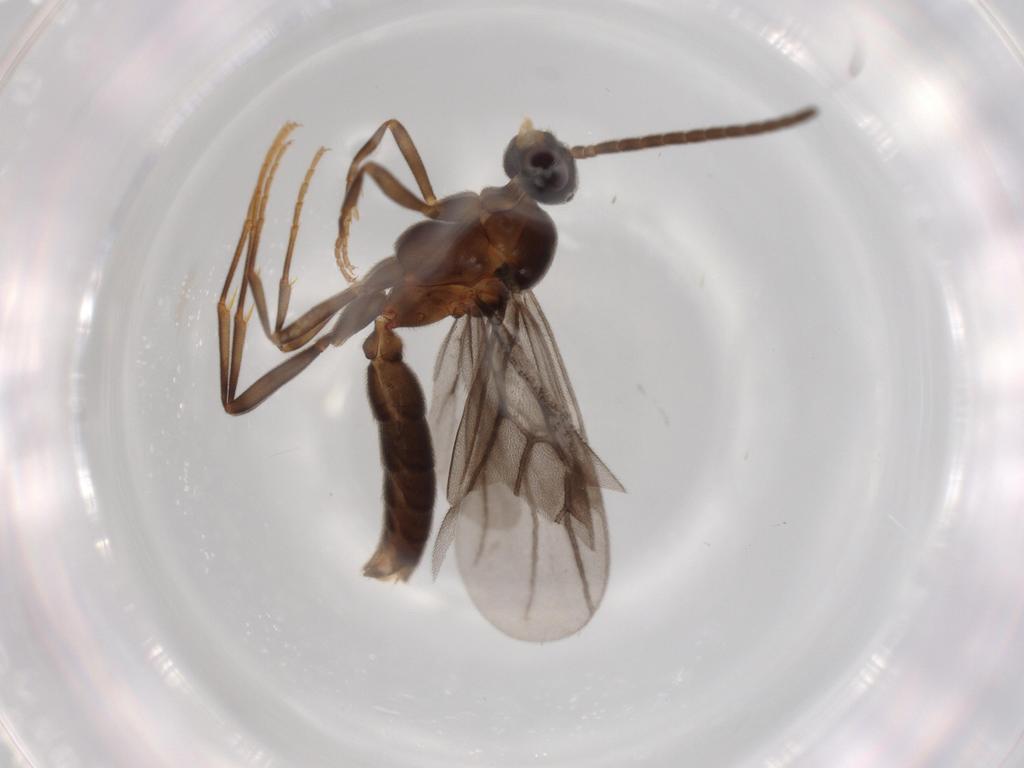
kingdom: Animalia
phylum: Arthropoda
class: Insecta
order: Hymenoptera
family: Formicidae
